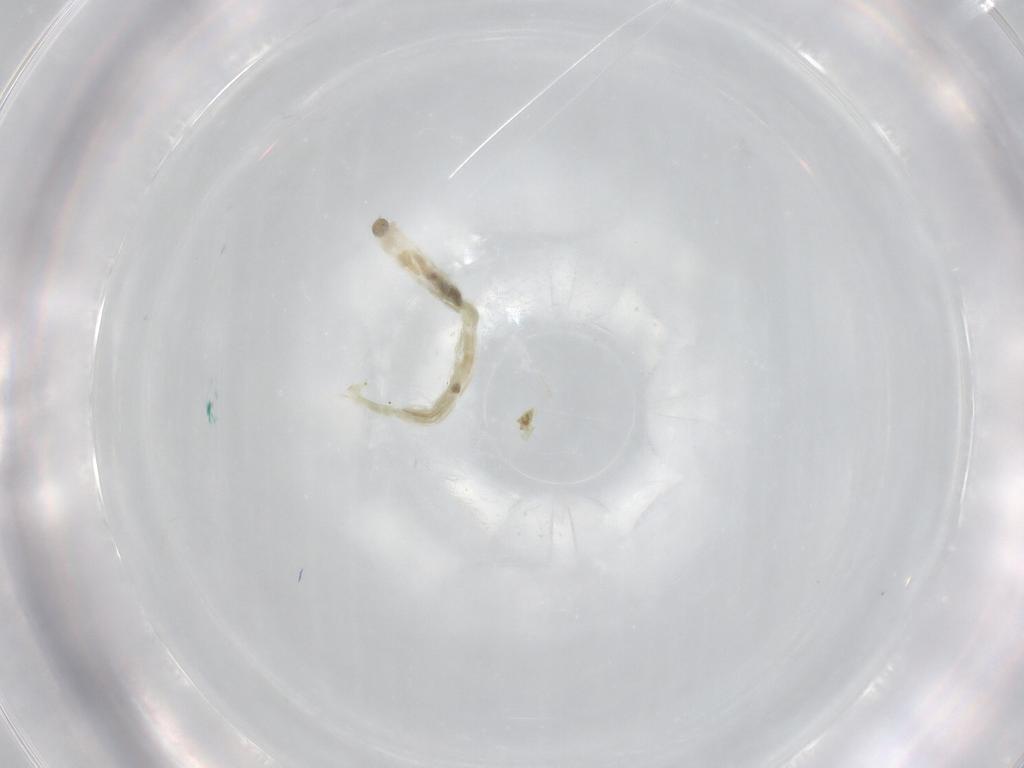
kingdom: Animalia
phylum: Arthropoda
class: Insecta
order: Diptera
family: Chironomidae
